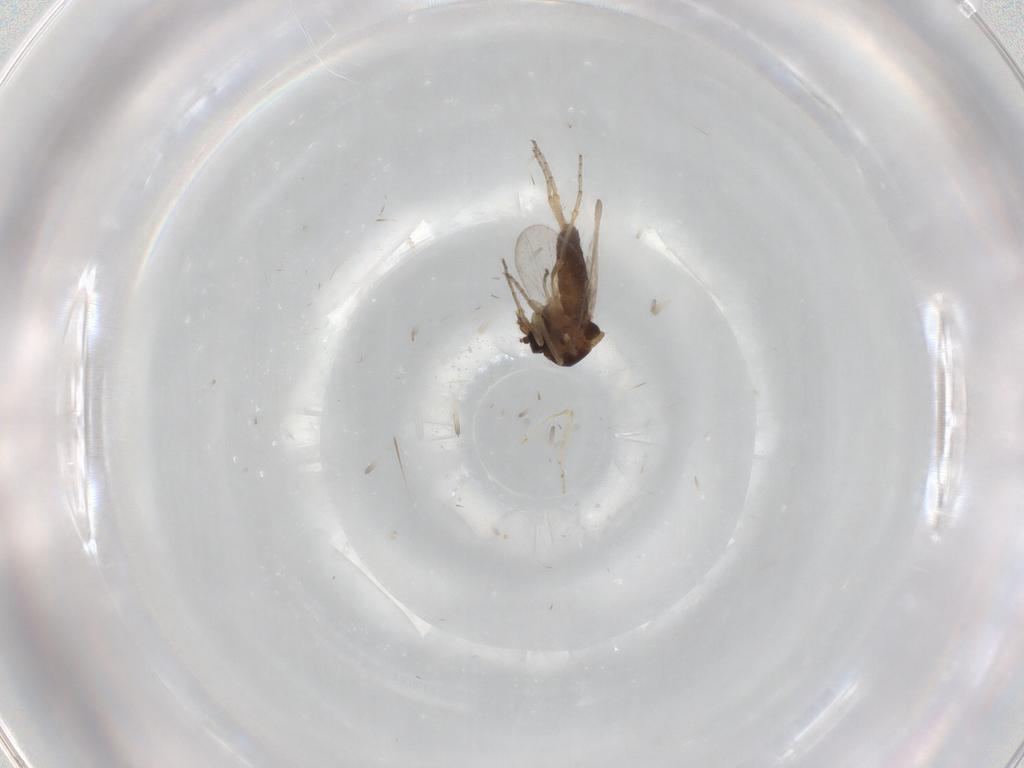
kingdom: Animalia
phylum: Arthropoda
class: Insecta
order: Diptera
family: Ceratopogonidae
